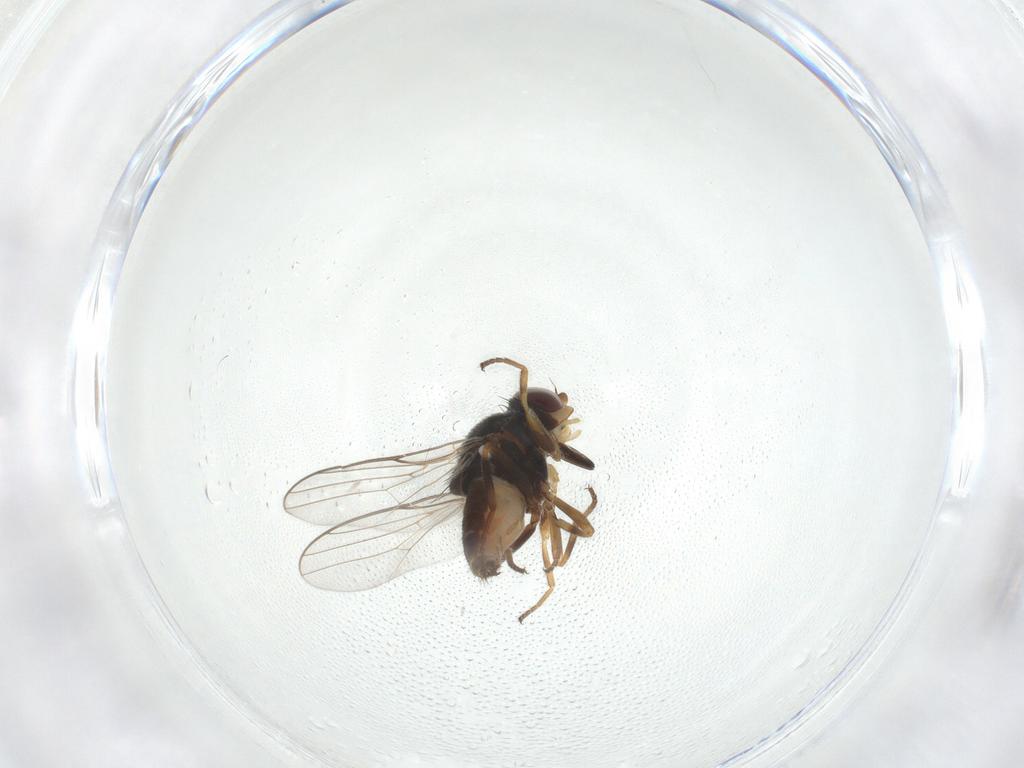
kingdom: Animalia
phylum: Arthropoda
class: Insecta
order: Diptera
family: Chloropidae
